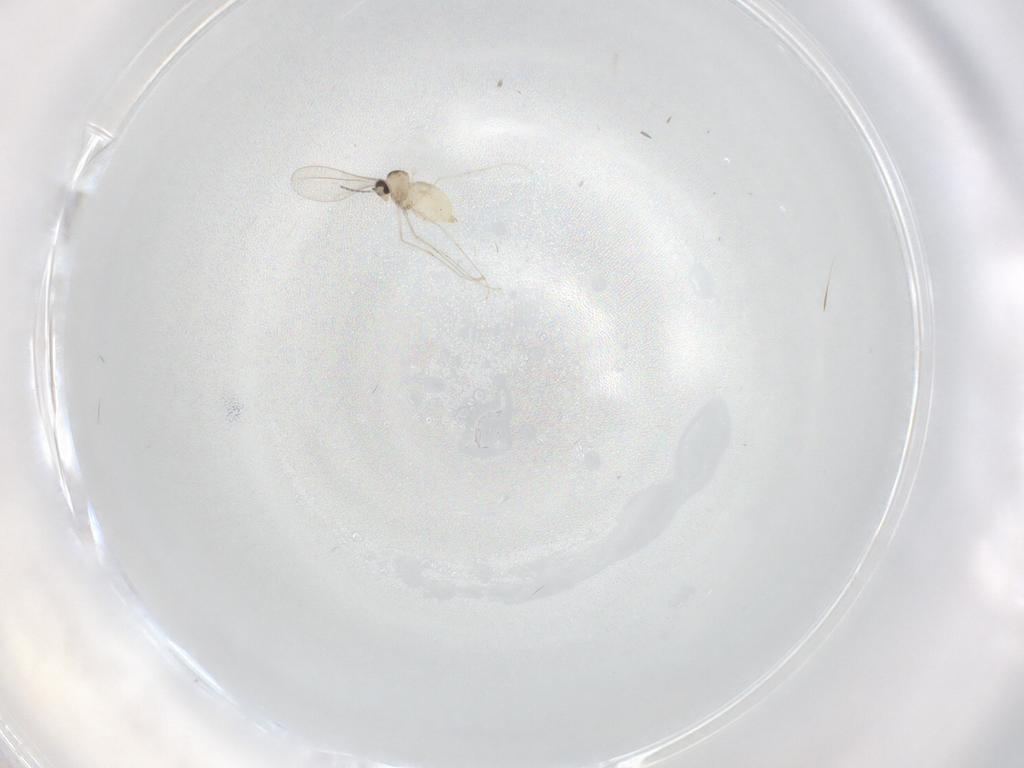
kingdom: Animalia
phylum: Arthropoda
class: Insecta
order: Diptera
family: Cecidomyiidae
